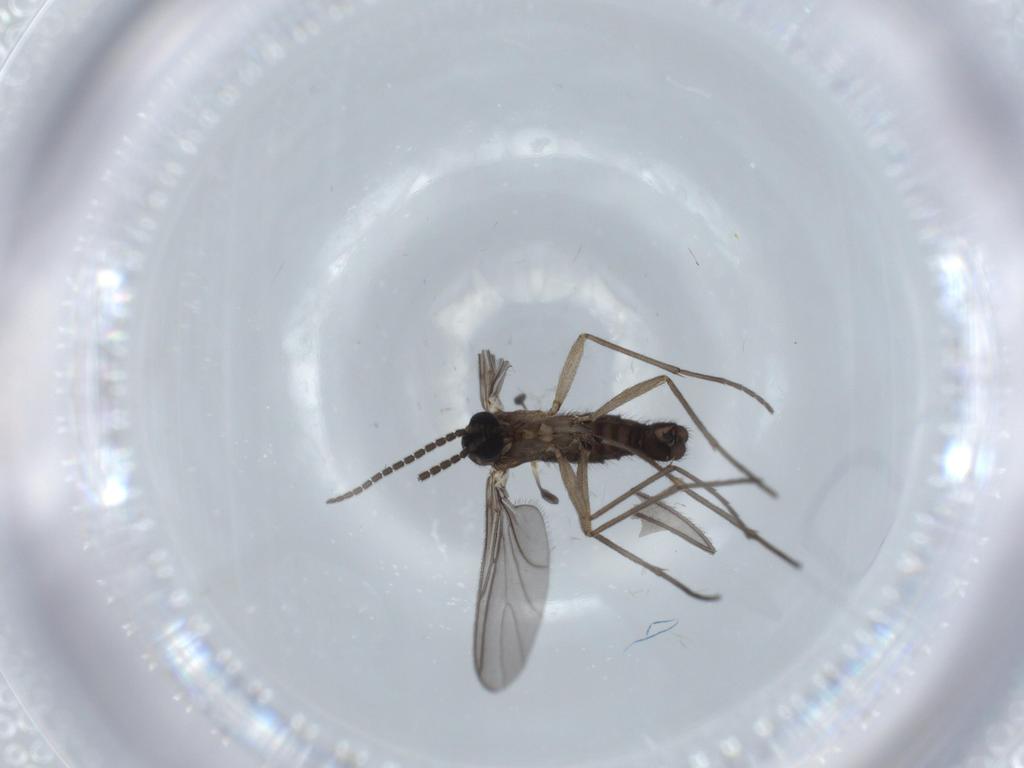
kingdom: Animalia
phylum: Arthropoda
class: Insecta
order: Diptera
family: Sciaridae
